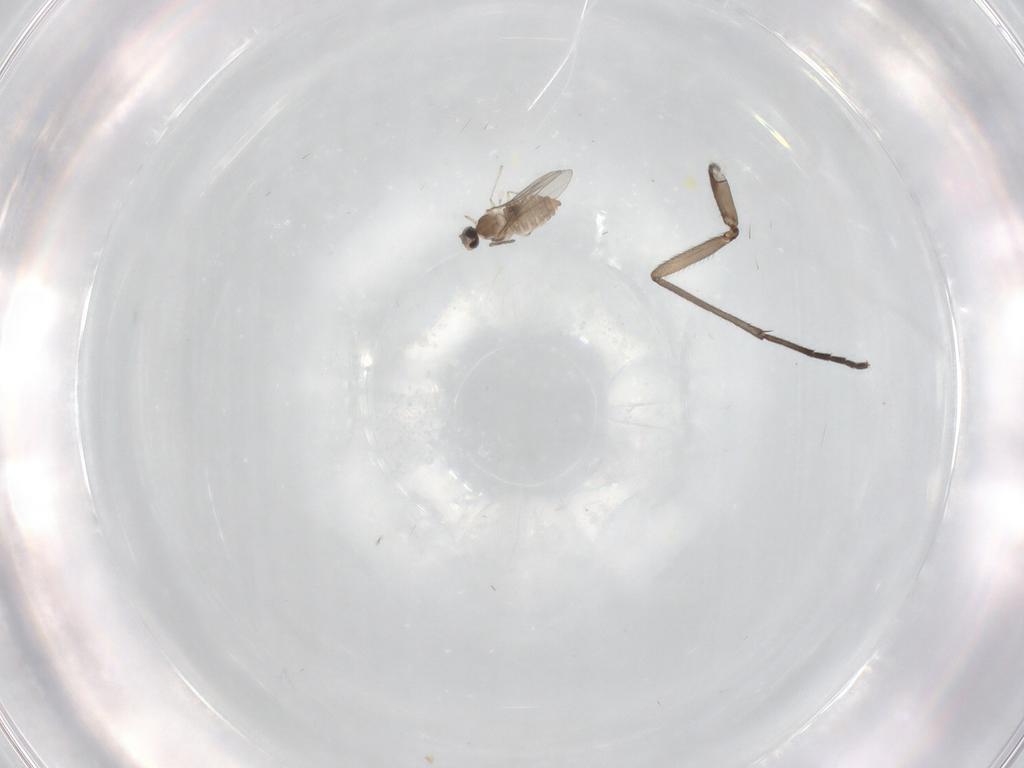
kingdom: Animalia
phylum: Arthropoda
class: Insecta
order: Diptera
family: Cecidomyiidae
